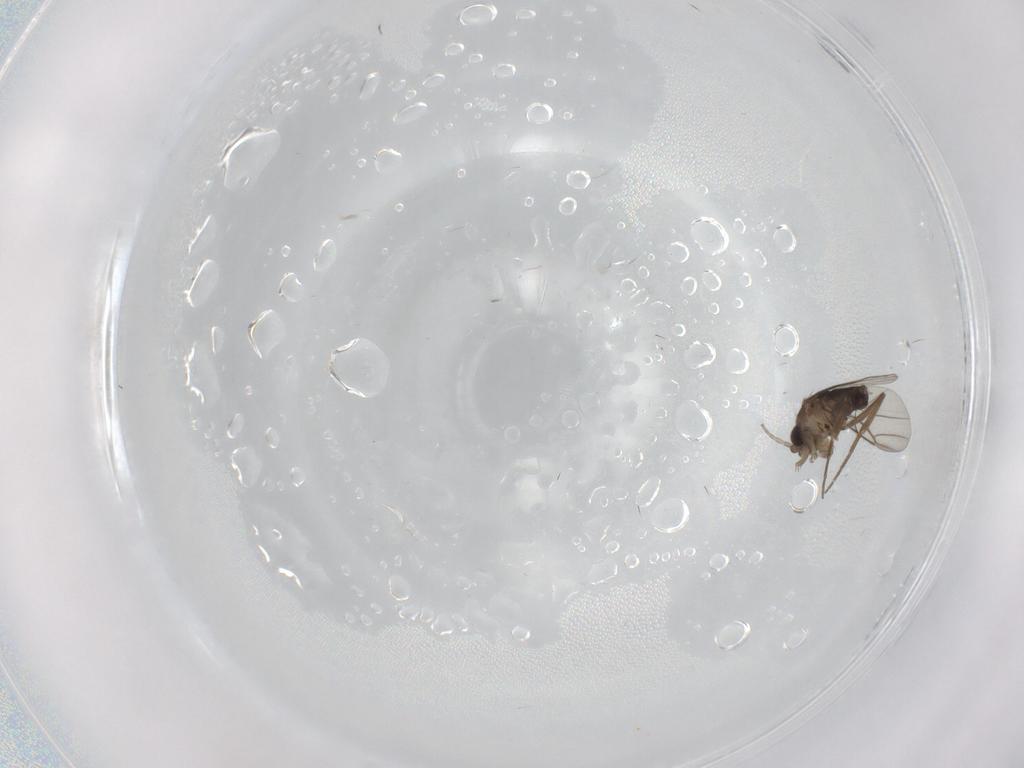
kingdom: Animalia
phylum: Arthropoda
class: Insecta
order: Diptera
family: Phoridae
